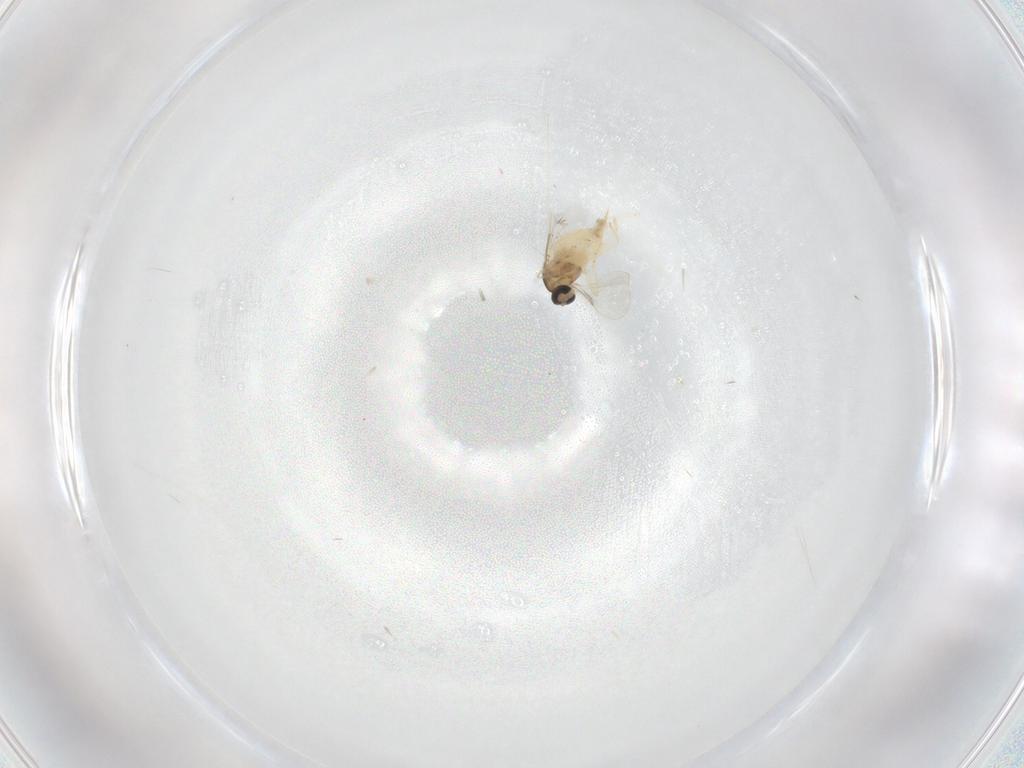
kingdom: Animalia
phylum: Arthropoda
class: Insecta
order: Diptera
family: Cecidomyiidae
